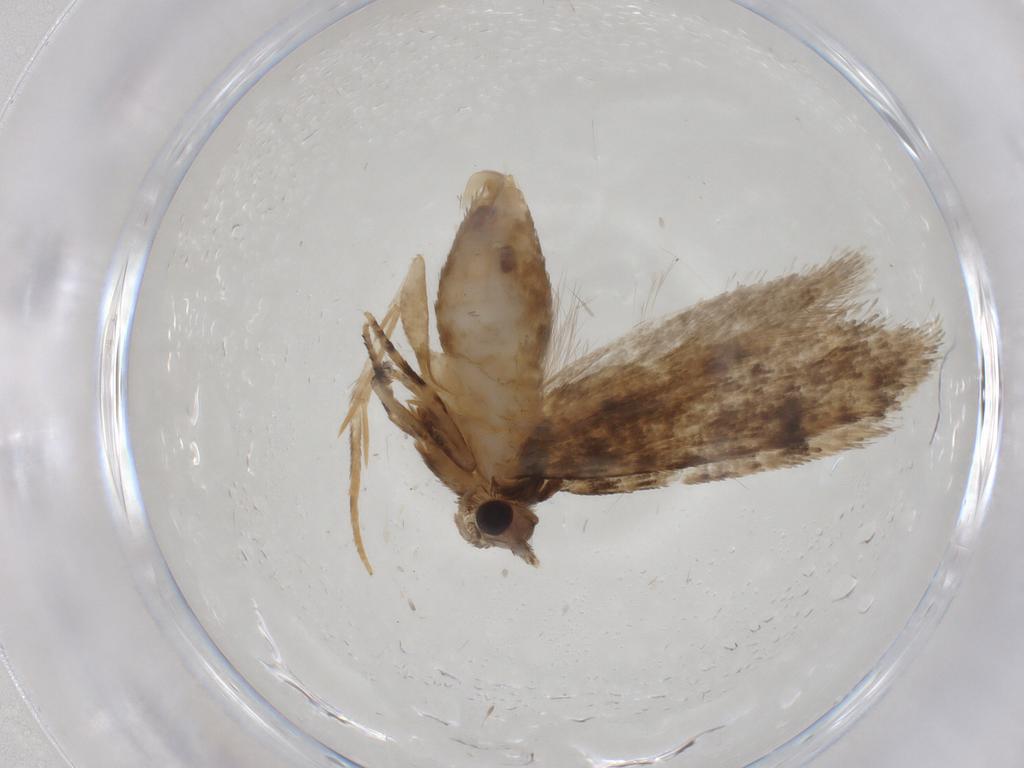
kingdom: Animalia
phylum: Arthropoda
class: Insecta
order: Lepidoptera
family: Tineidae
